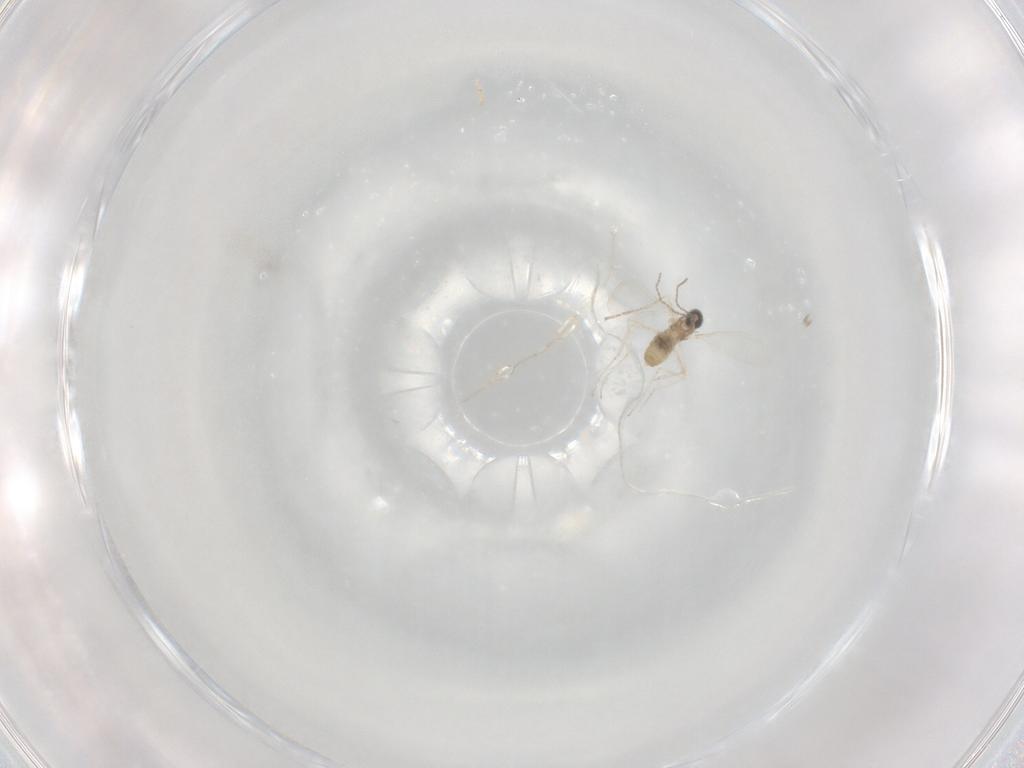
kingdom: Animalia
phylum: Arthropoda
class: Insecta
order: Diptera
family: Cecidomyiidae
